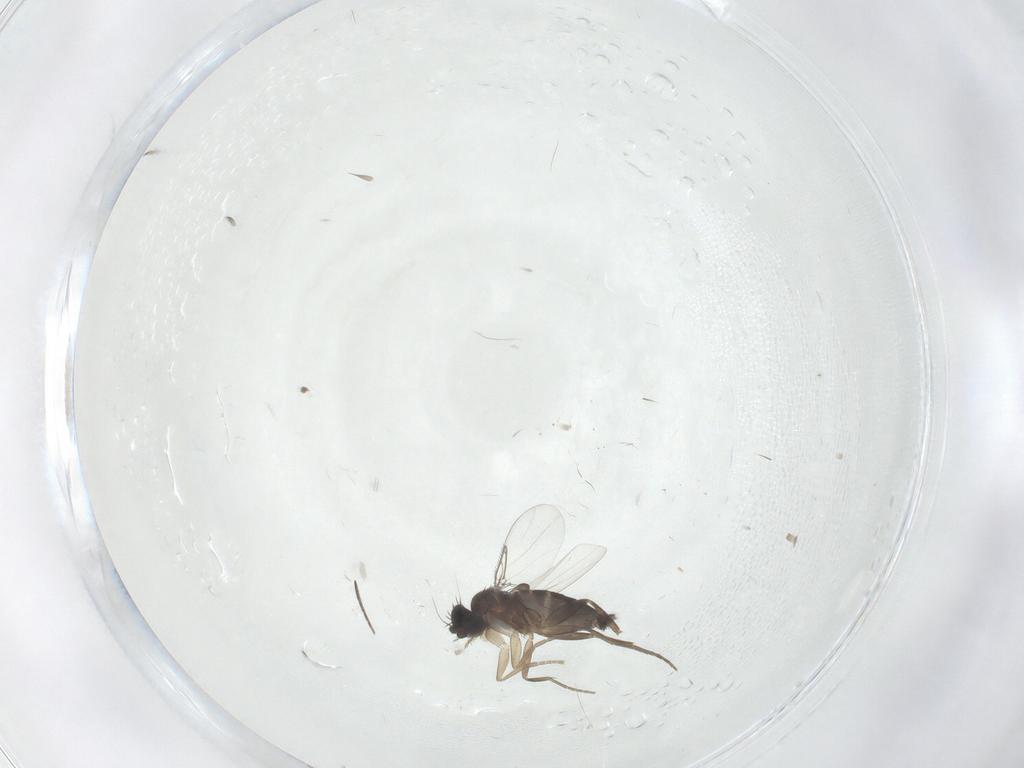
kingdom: Animalia
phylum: Arthropoda
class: Insecta
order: Diptera
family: Phoridae
